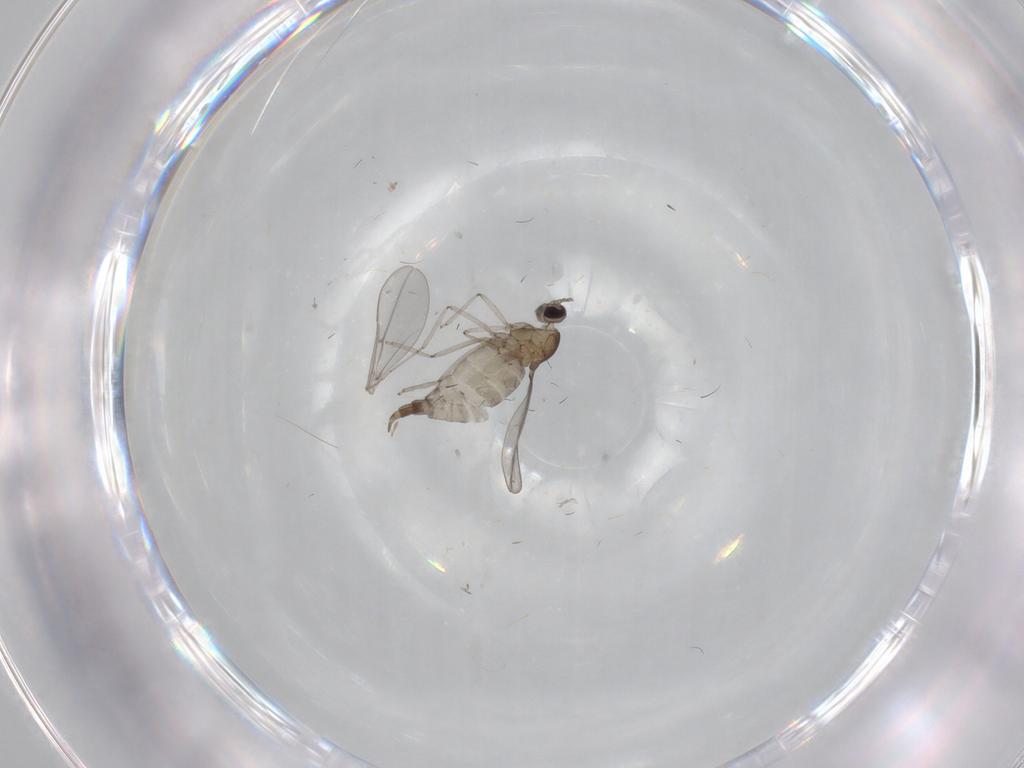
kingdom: Animalia
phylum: Arthropoda
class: Insecta
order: Diptera
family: Cecidomyiidae
